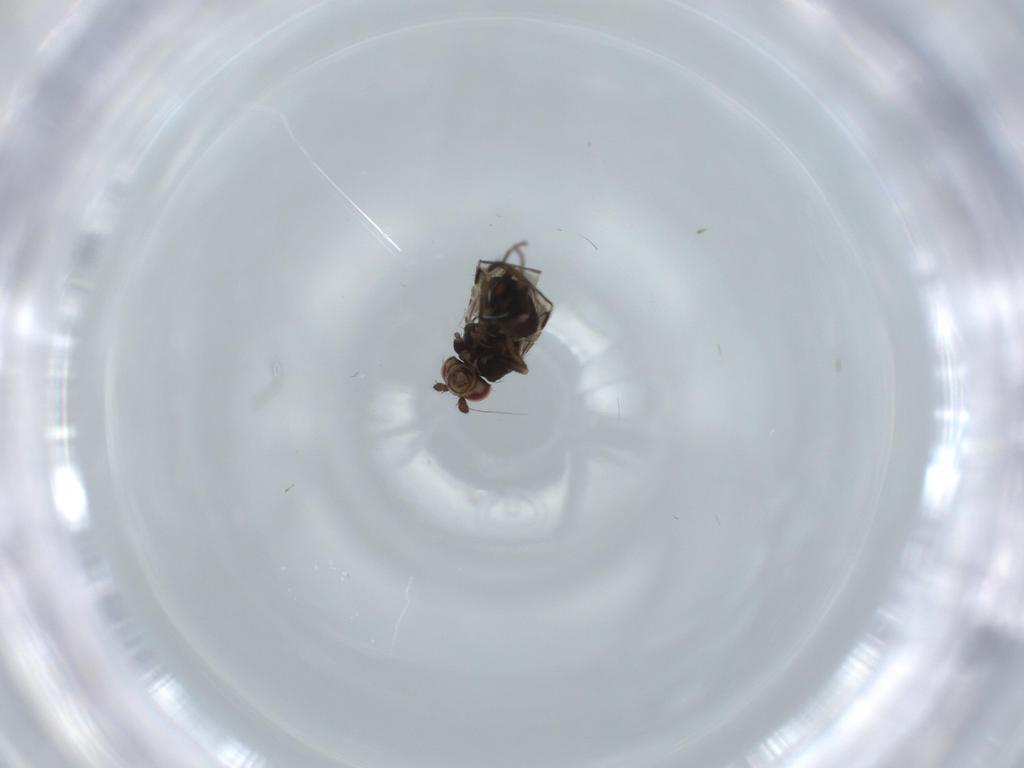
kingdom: Animalia
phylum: Arthropoda
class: Insecta
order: Diptera
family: Sphaeroceridae
